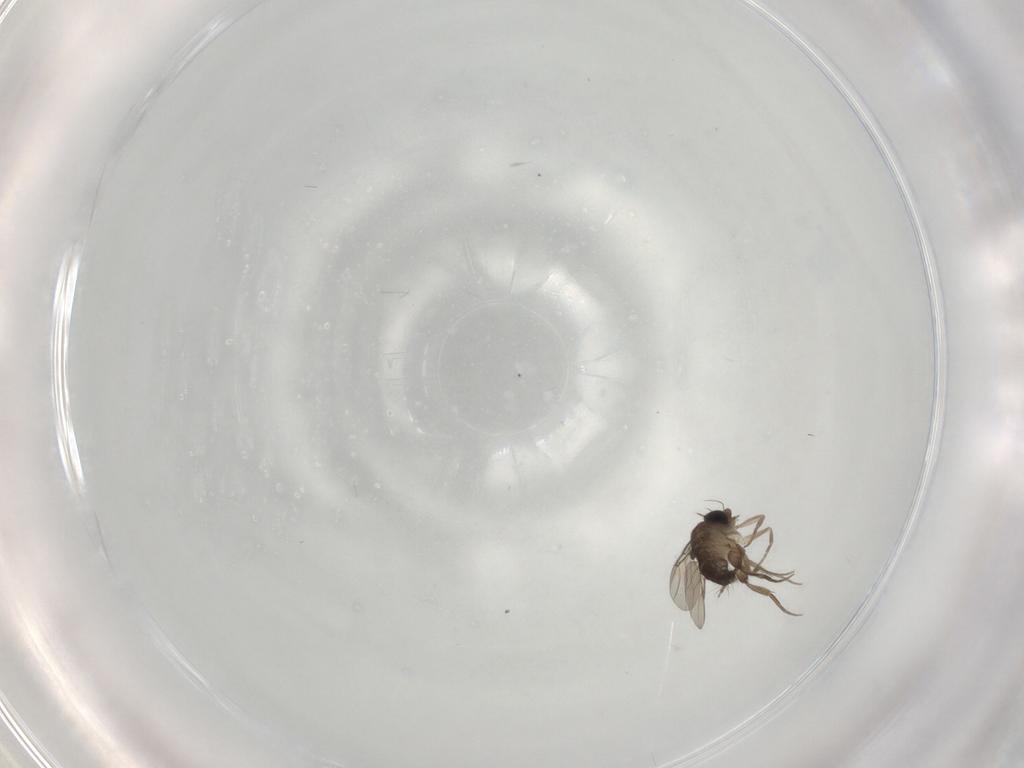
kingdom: Animalia
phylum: Arthropoda
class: Insecta
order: Diptera
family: Phoridae
